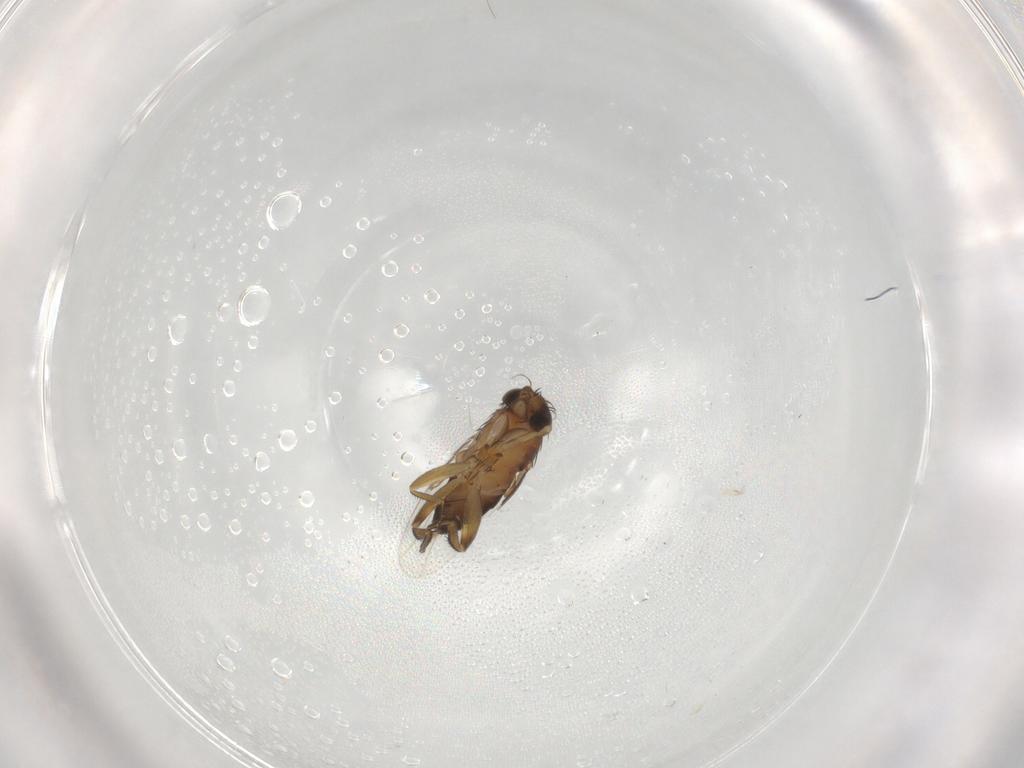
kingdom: Animalia
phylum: Arthropoda
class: Insecta
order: Diptera
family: Phoridae
